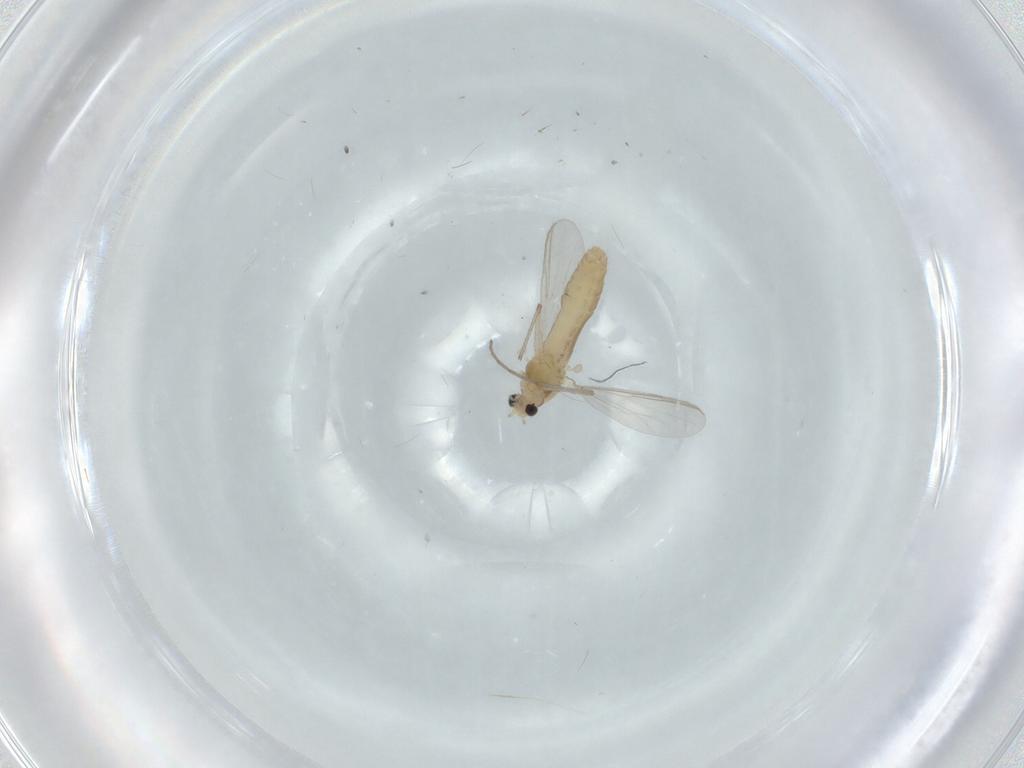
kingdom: Animalia
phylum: Arthropoda
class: Insecta
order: Diptera
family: Chironomidae
